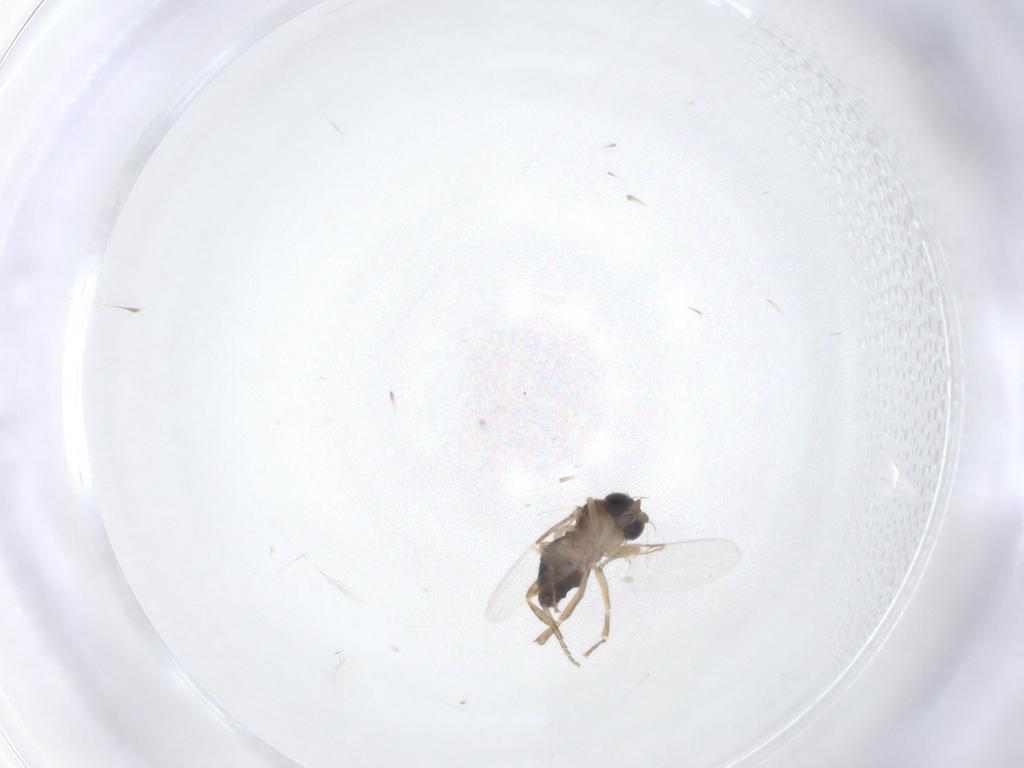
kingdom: Animalia
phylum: Arthropoda
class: Insecta
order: Diptera
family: Phoridae
